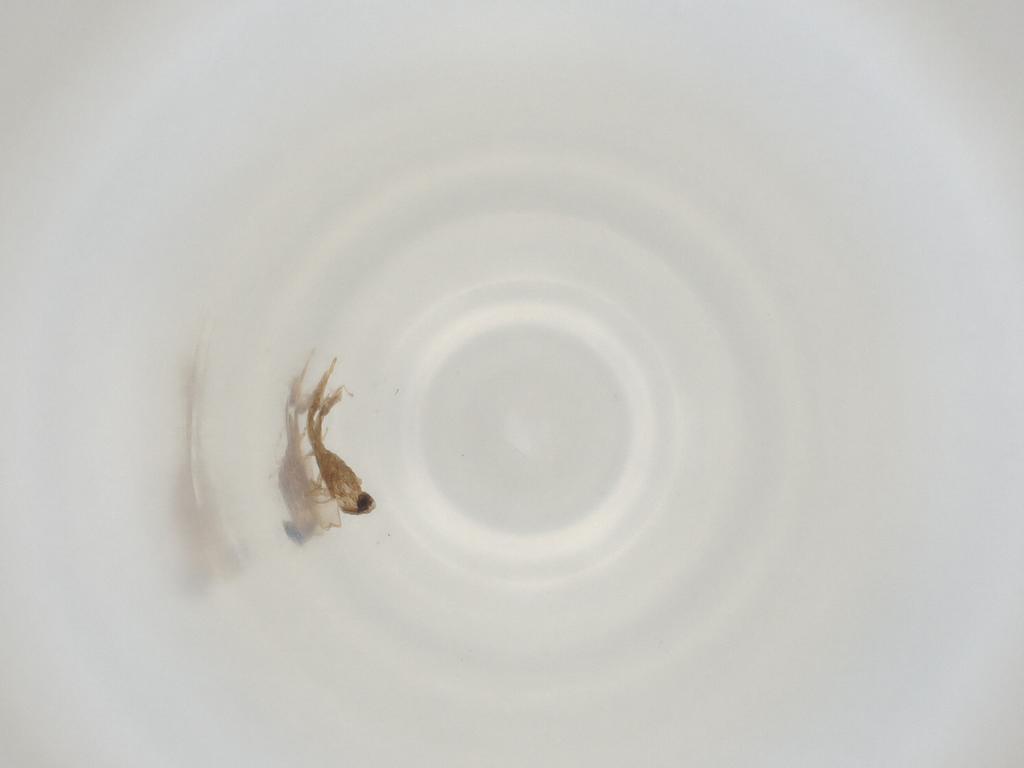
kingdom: Animalia
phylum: Arthropoda
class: Insecta
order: Diptera
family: Cecidomyiidae
